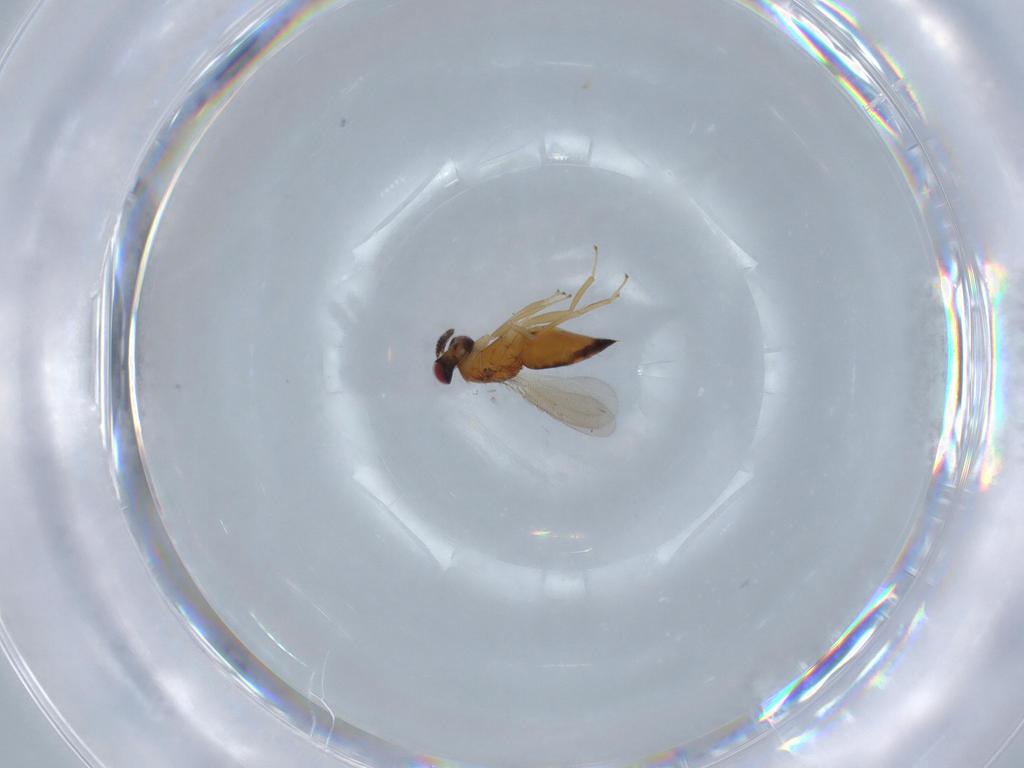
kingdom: Animalia
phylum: Arthropoda
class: Insecta
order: Hymenoptera
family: Eulophidae
